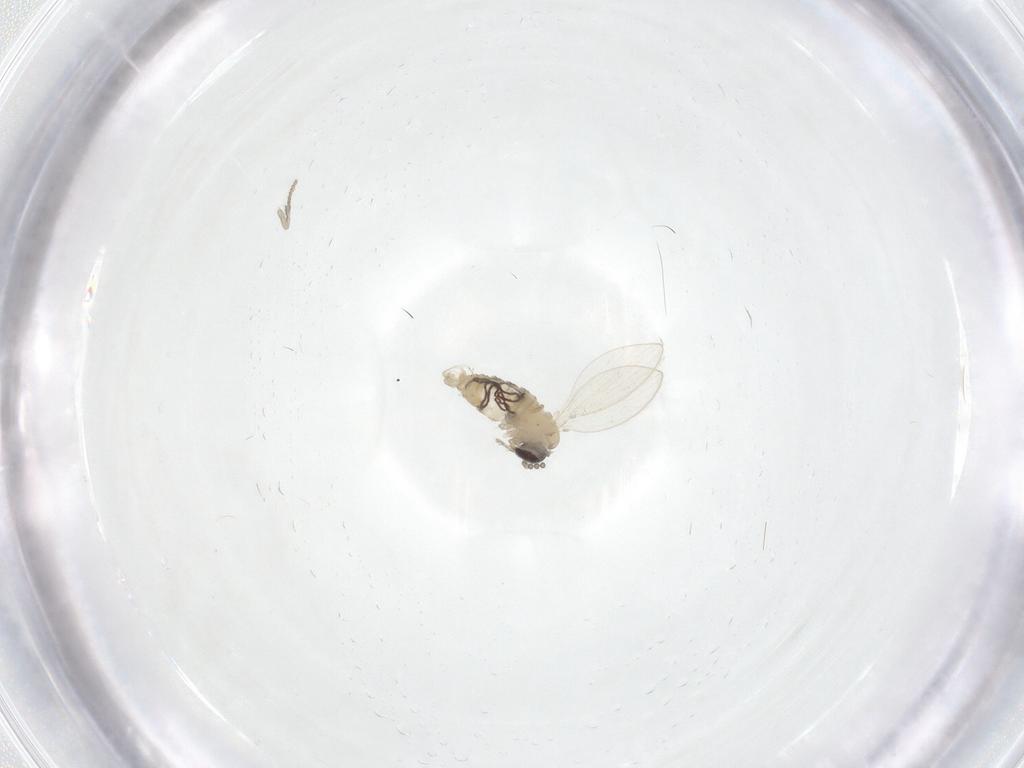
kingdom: Animalia
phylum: Arthropoda
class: Insecta
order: Diptera
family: Psychodidae
